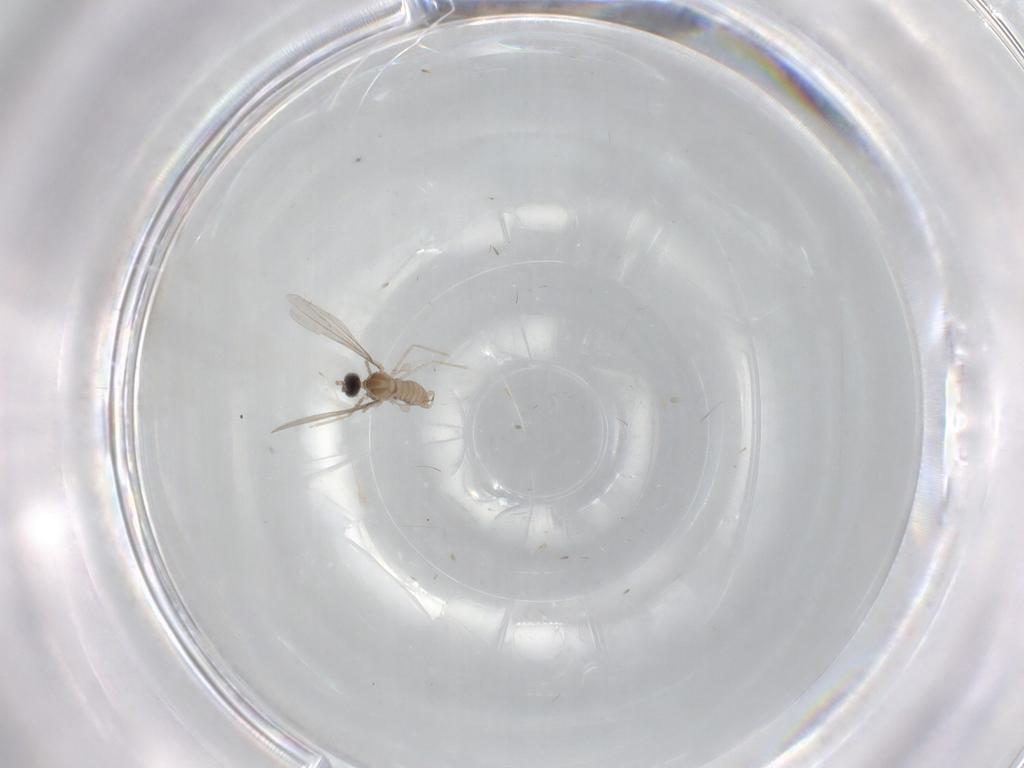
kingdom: Animalia
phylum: Arthropoda
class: Insecta
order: Diptera
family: Cecidomyiidae
